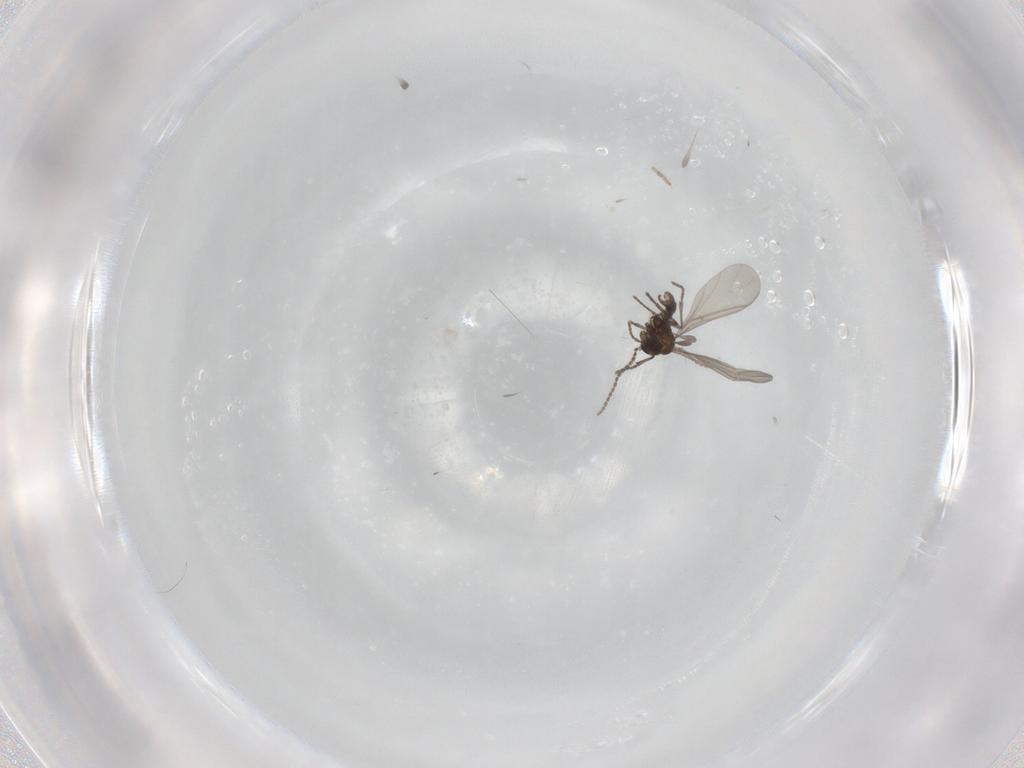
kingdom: Animalia
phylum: Arthropoda
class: Insecta
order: Diptera
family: Sciaridae
